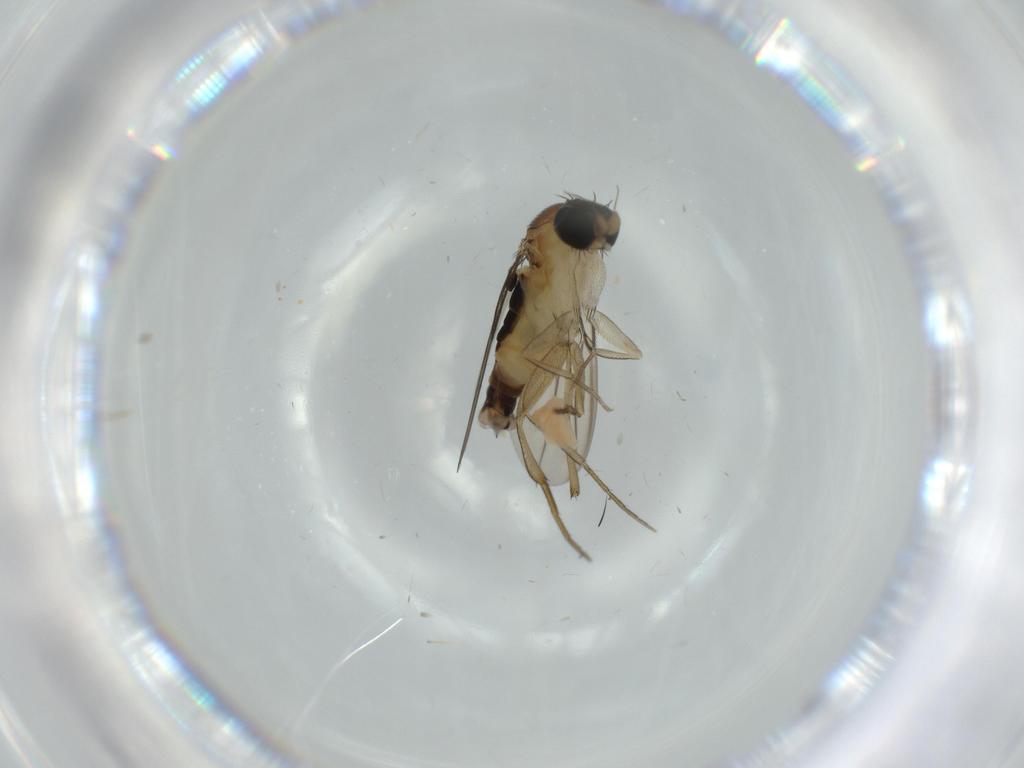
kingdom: Animalia
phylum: Arthropoda
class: Insecta
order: Diptera
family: Phoridae
